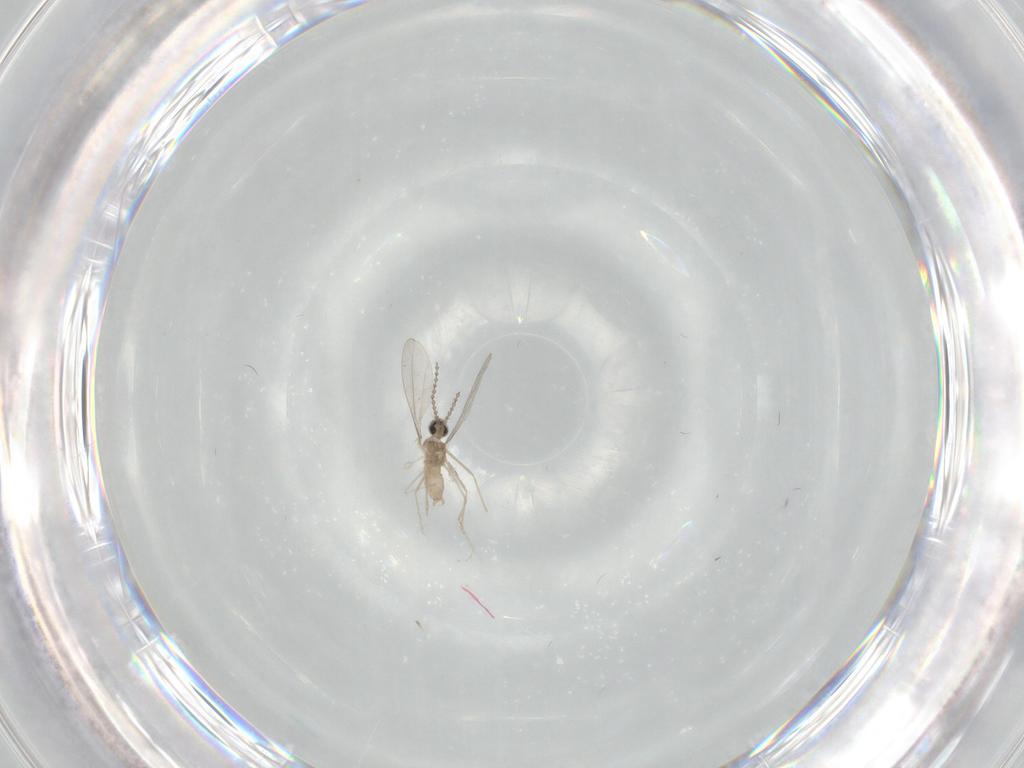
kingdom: Animalia
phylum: Arthropoda
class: Insecta
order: Diptera
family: Cecidomyiidae
